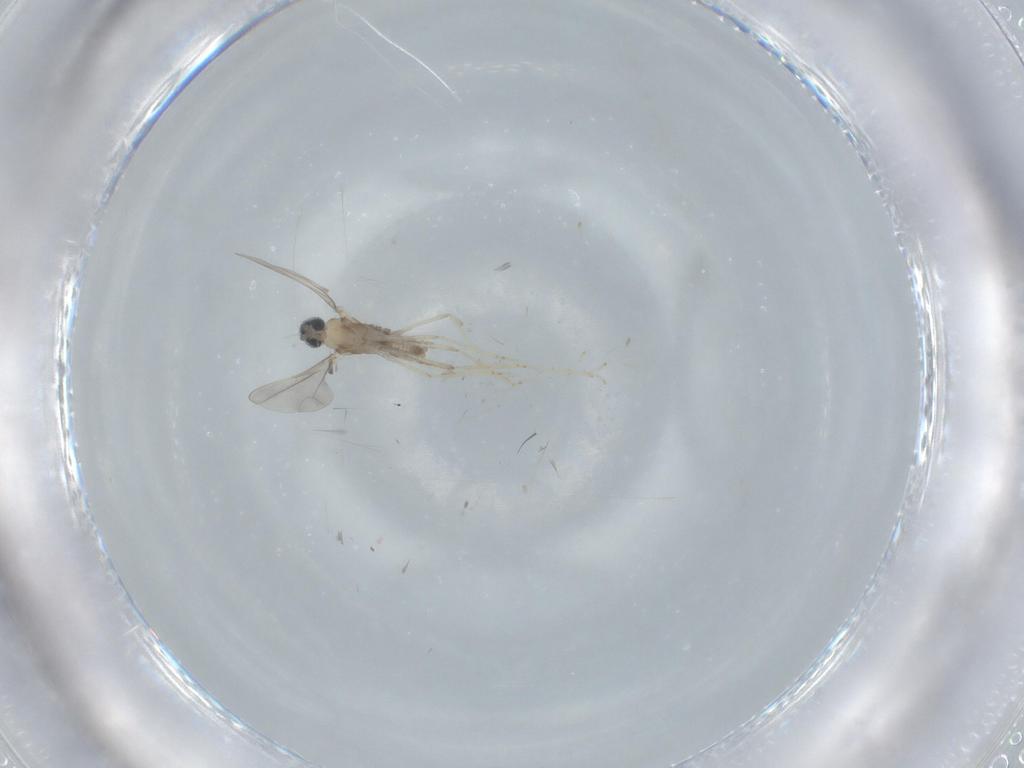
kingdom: Animalia
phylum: Arthropoda
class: Insecta
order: Diptera
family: Cecidomyiidae
